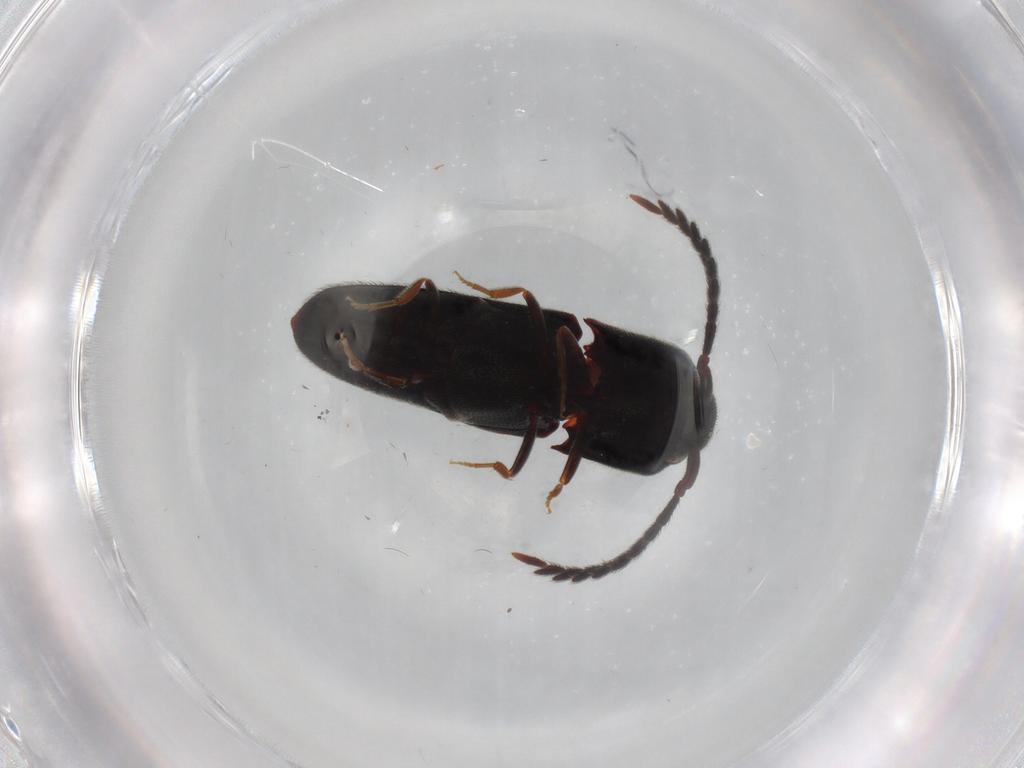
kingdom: Animalia
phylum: Arthropoda
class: Insecta
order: Coleoptera
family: Eucnemidae
